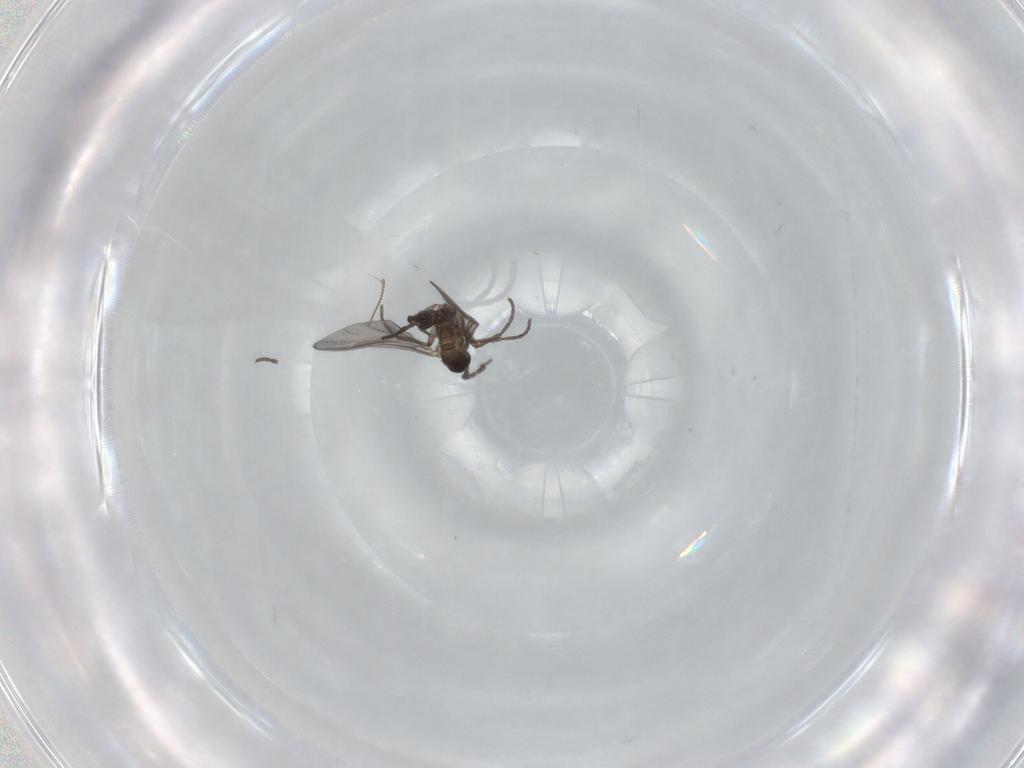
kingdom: Animalia
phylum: Arthropoda
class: Insecta
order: Diptera
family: Sciaridae
